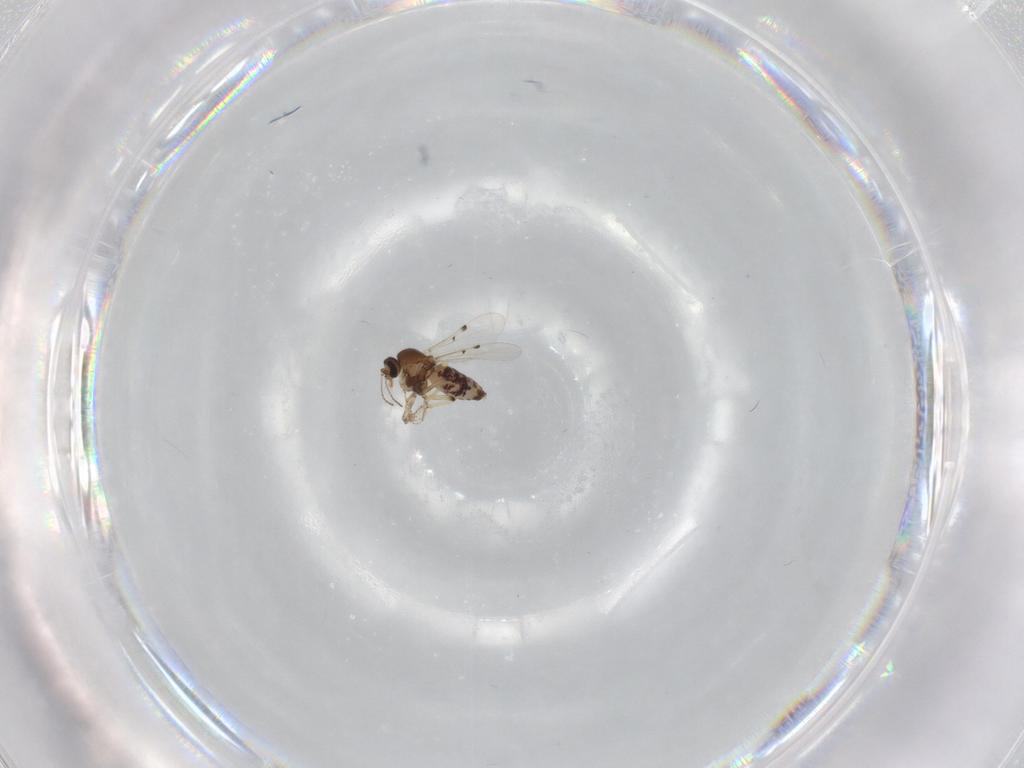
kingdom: Animalia
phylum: Arthropoda
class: Insecta
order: Diptera
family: Ceratopogonidae
